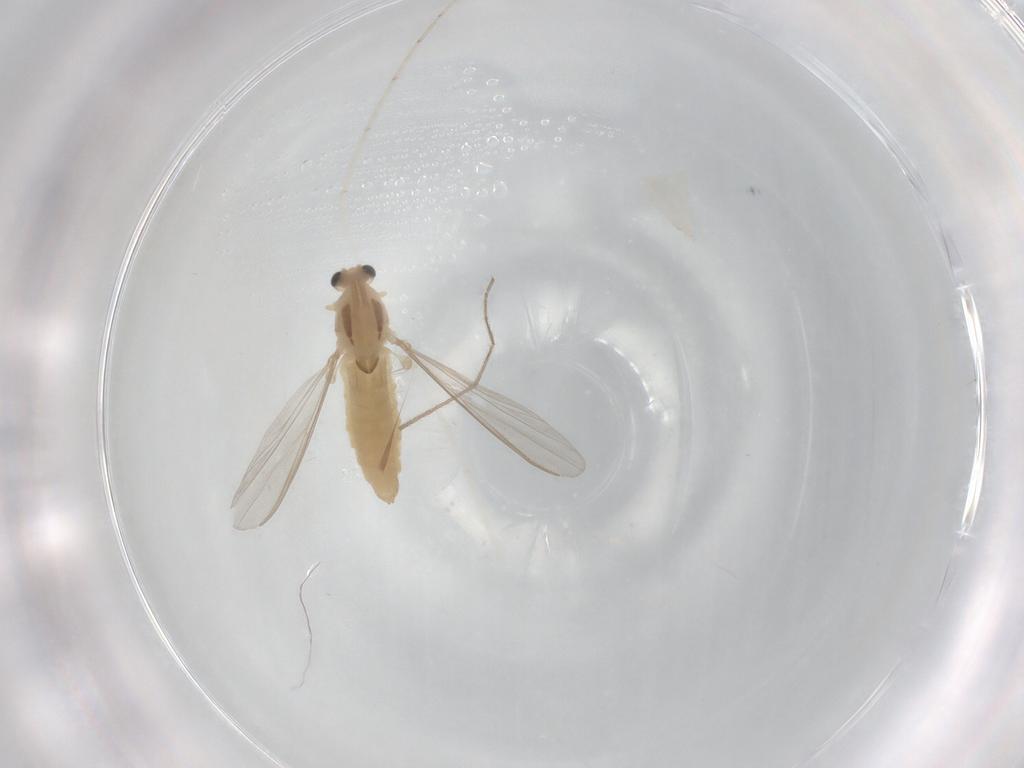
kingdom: Animalia
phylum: Arthropoda
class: Insecta
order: Diptera
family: Chironomidae
